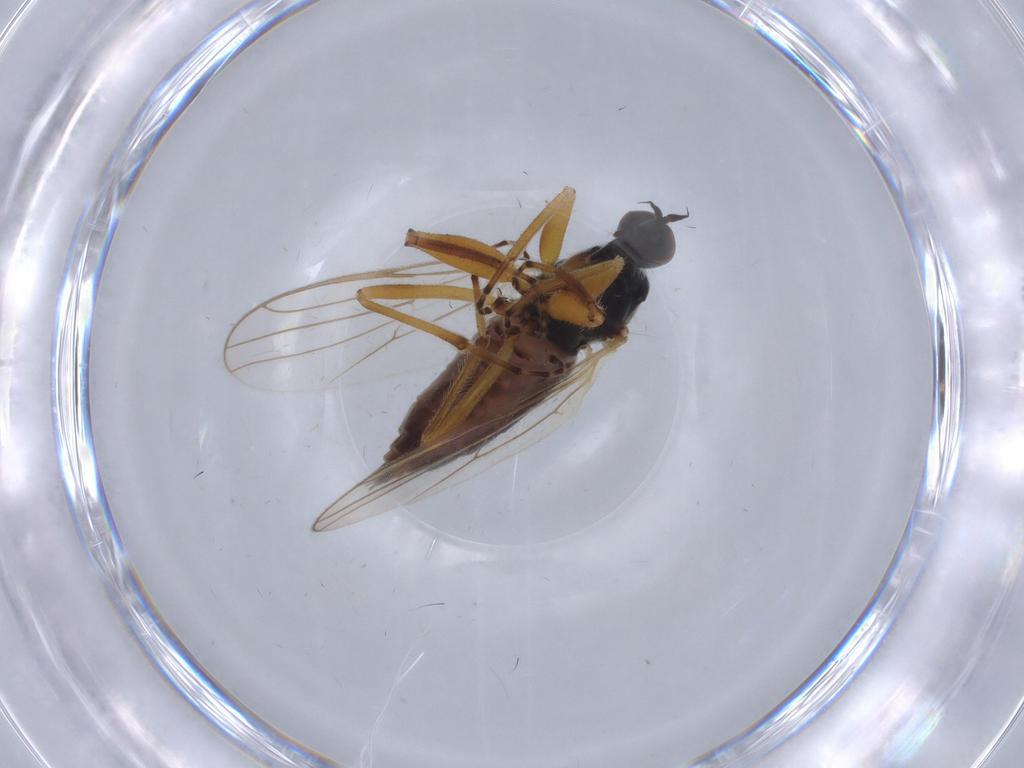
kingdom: Animalia
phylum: Arthropoda
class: Insecta
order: Diptera
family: Hybotidae
